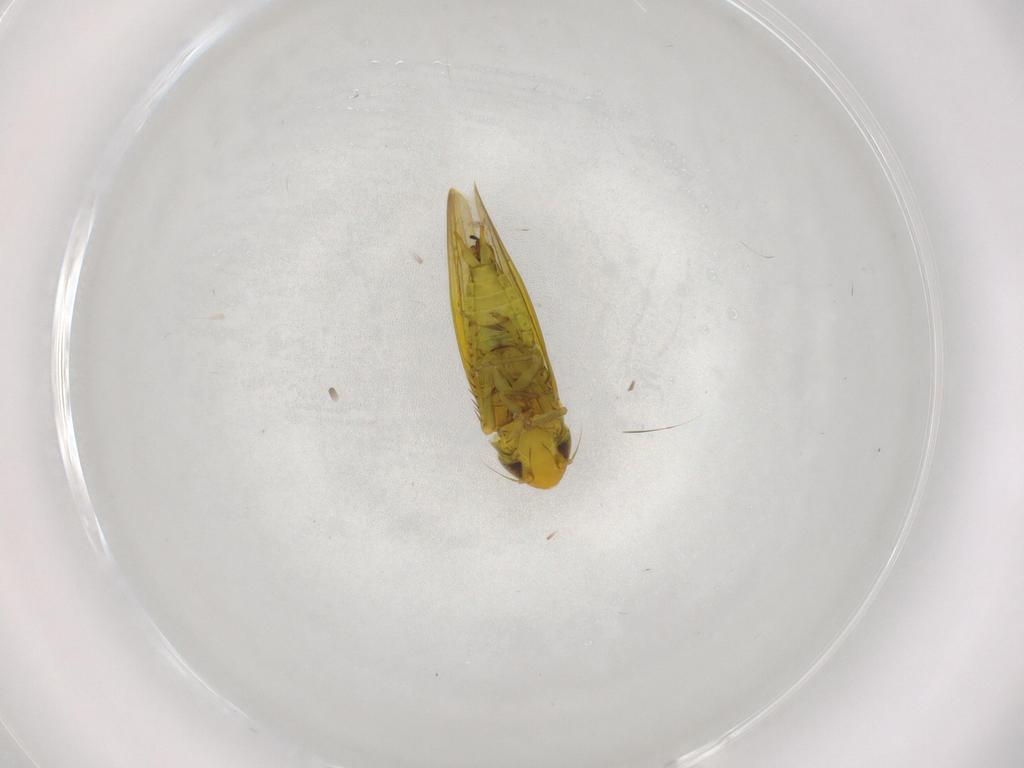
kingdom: Animalia
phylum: Arthropoda
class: Insecta
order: Hemiptera
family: Cicadellidae
